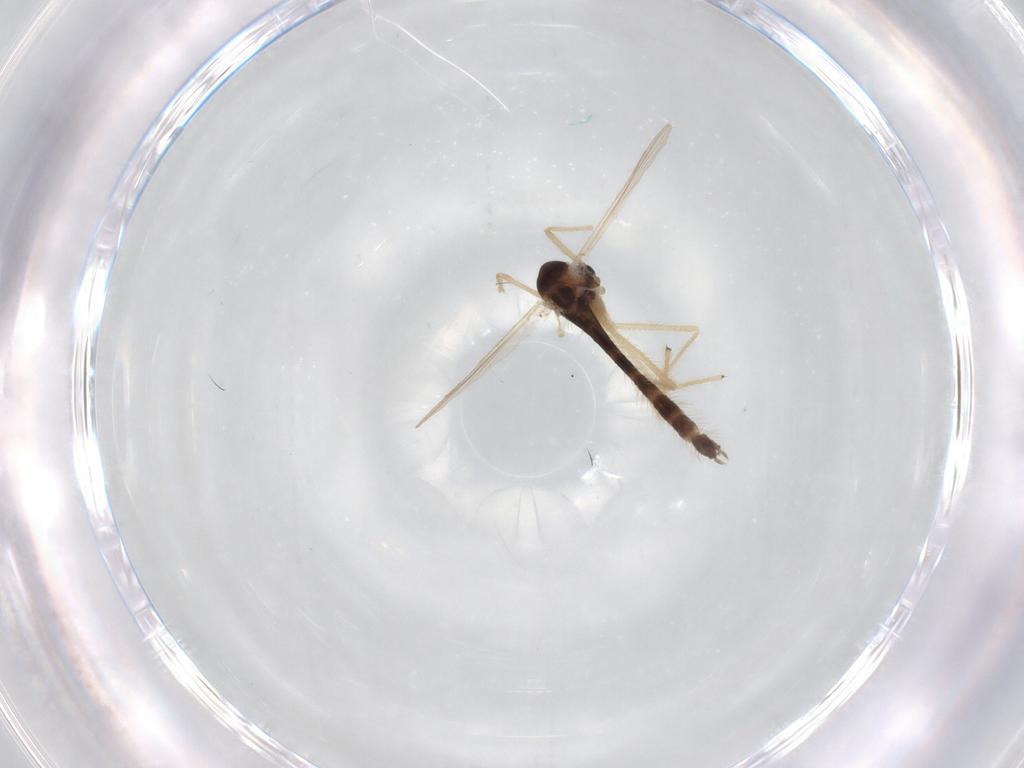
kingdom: Animalia
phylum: Arthropoda
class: Insecta
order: Diptera
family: Chironomidae
